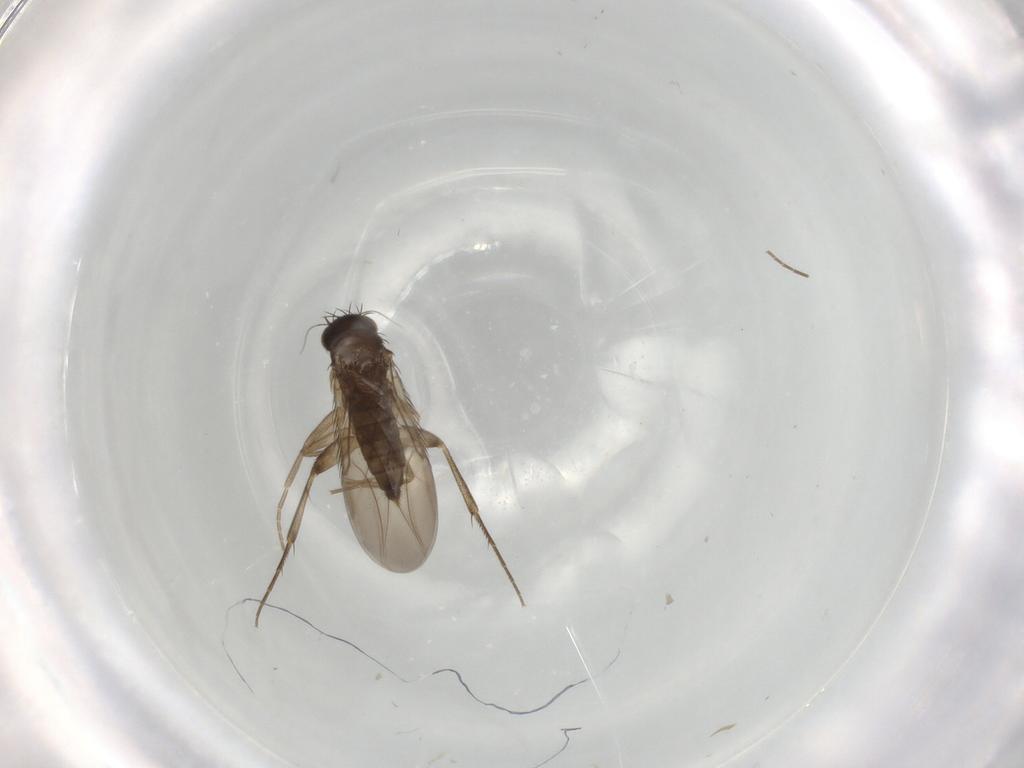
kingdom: Animalia
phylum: Arthropoda
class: Insecta
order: Diptera
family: Phoridae
